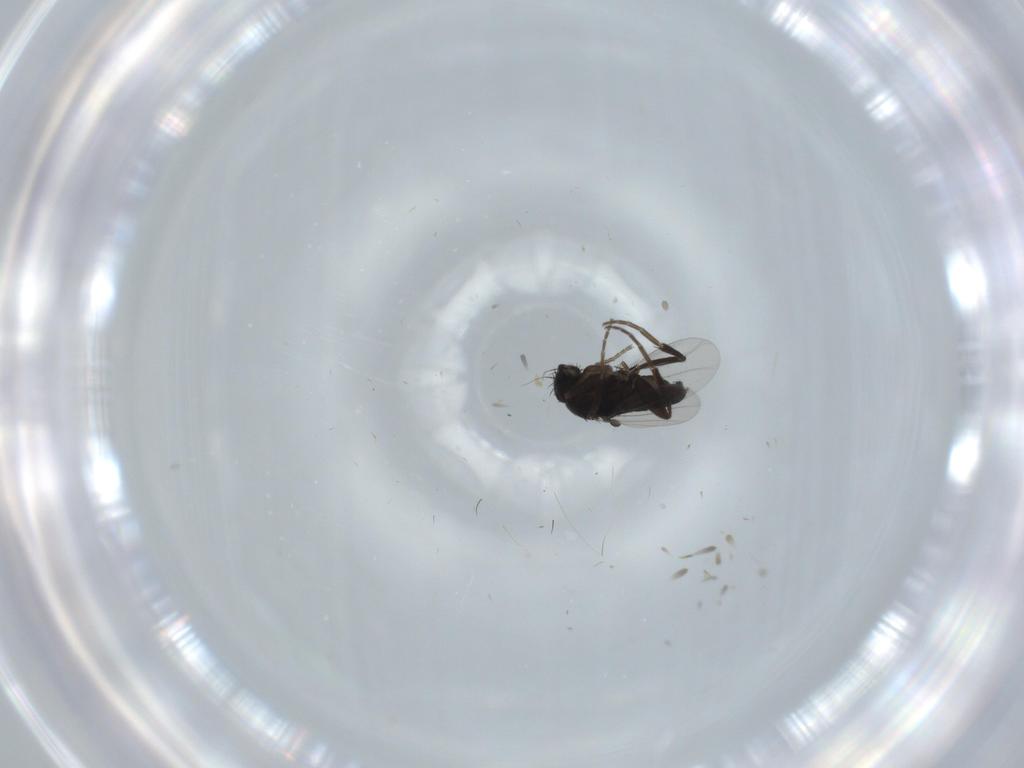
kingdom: Animalia
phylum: Arthropoda
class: Insecta
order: Diptera
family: Phoridae
